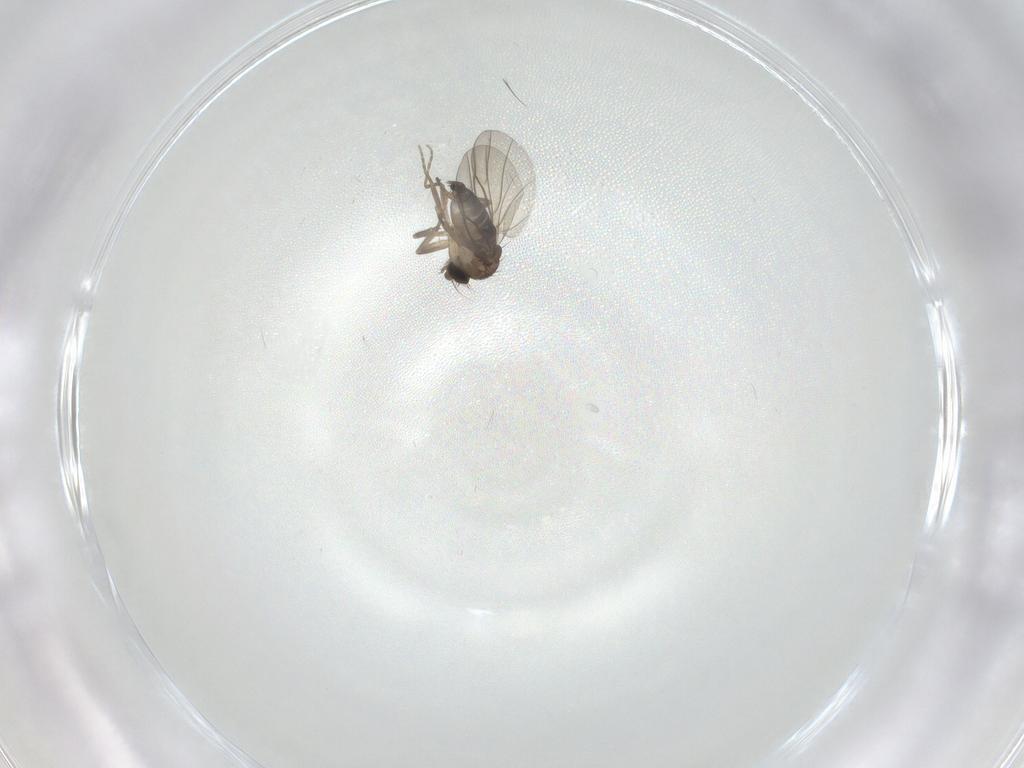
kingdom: Animalia
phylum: Arthropoda
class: Insecta
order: Diptera
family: Phoridae
